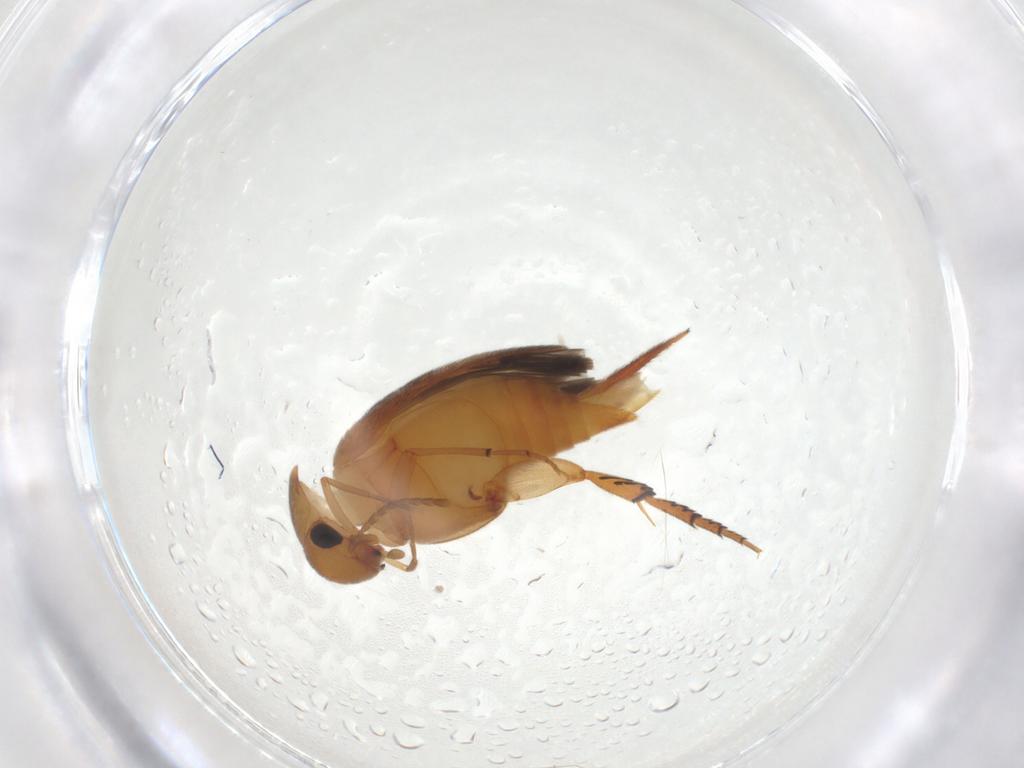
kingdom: Animalia
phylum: Arthropoda
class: Insecta
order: Coleoptera
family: Mordellidae
